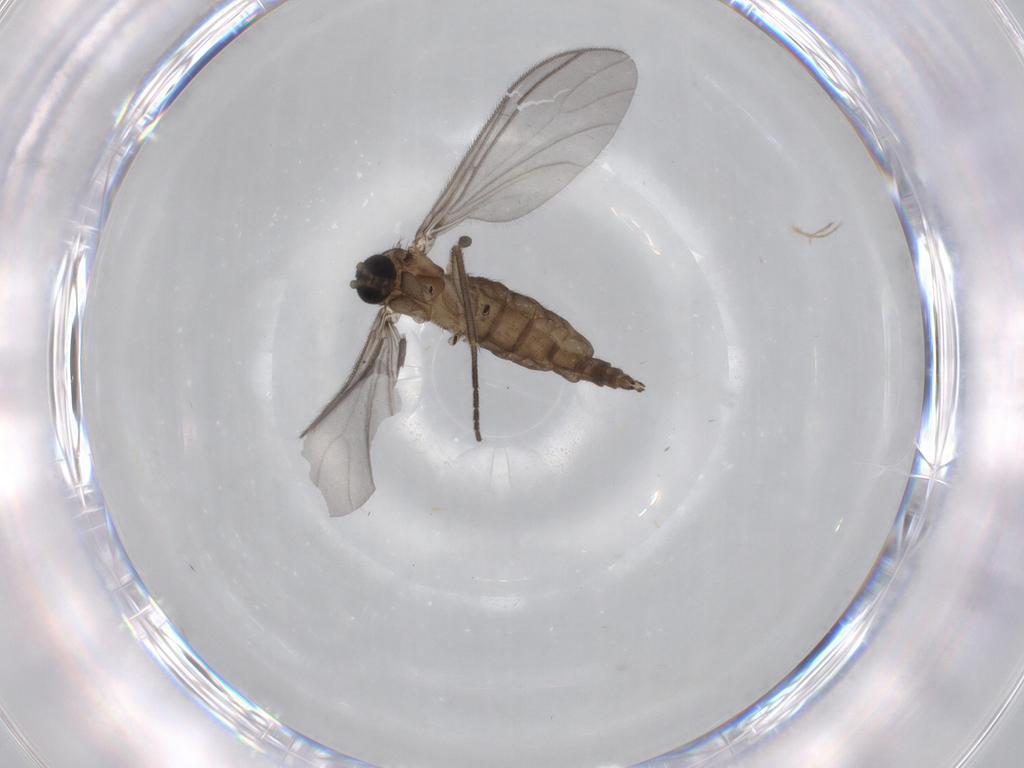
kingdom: Animalia
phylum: Arthropoda
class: Insecta
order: Diptera
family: Sciaridae
